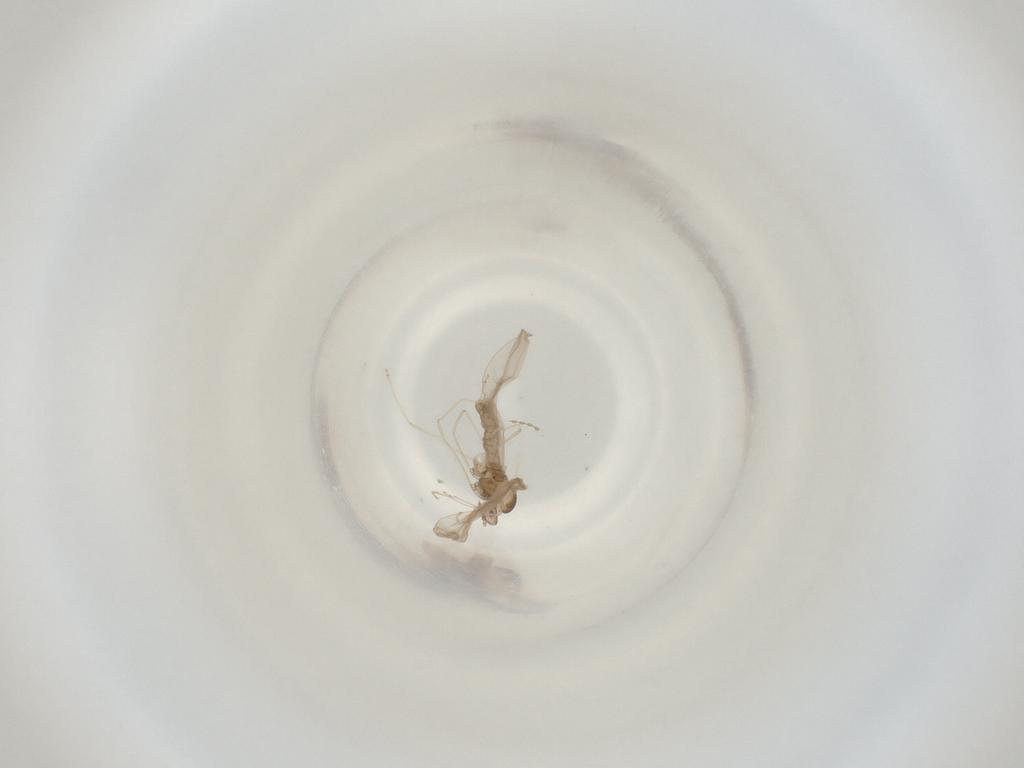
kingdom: Animalia
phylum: Arthropoda
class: Insecta
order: Diptera
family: Cecidomyiidae
